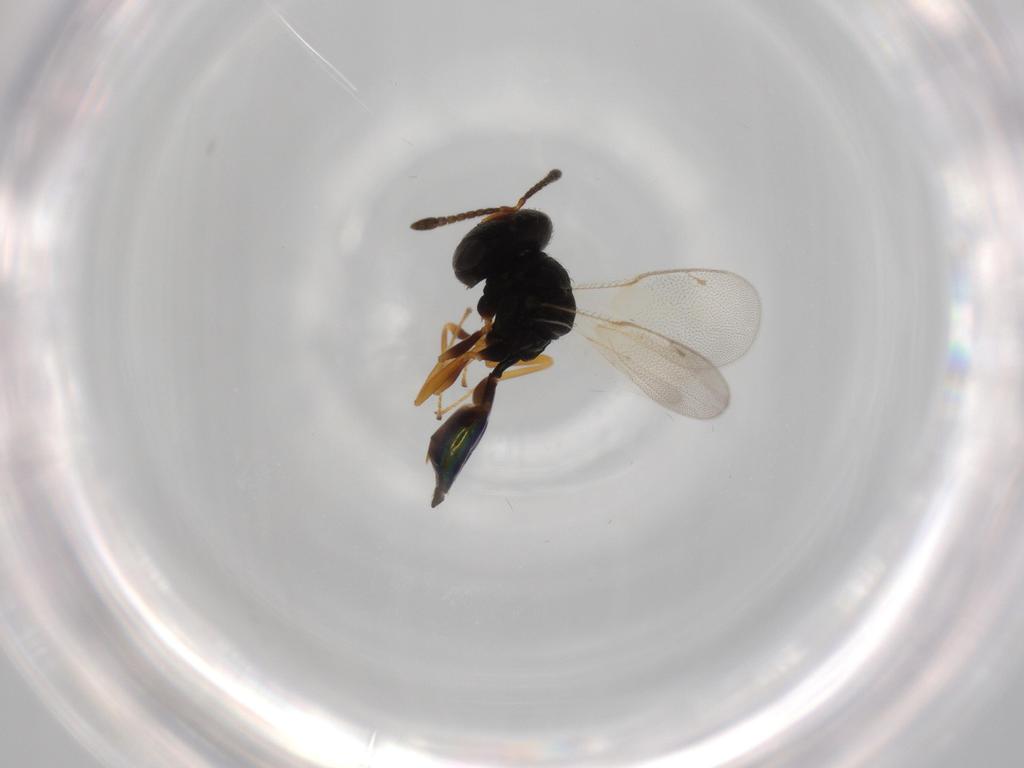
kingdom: Animalia
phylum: Arthropoda
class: Insecta
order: Hymenoptera
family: Pteromalidae
